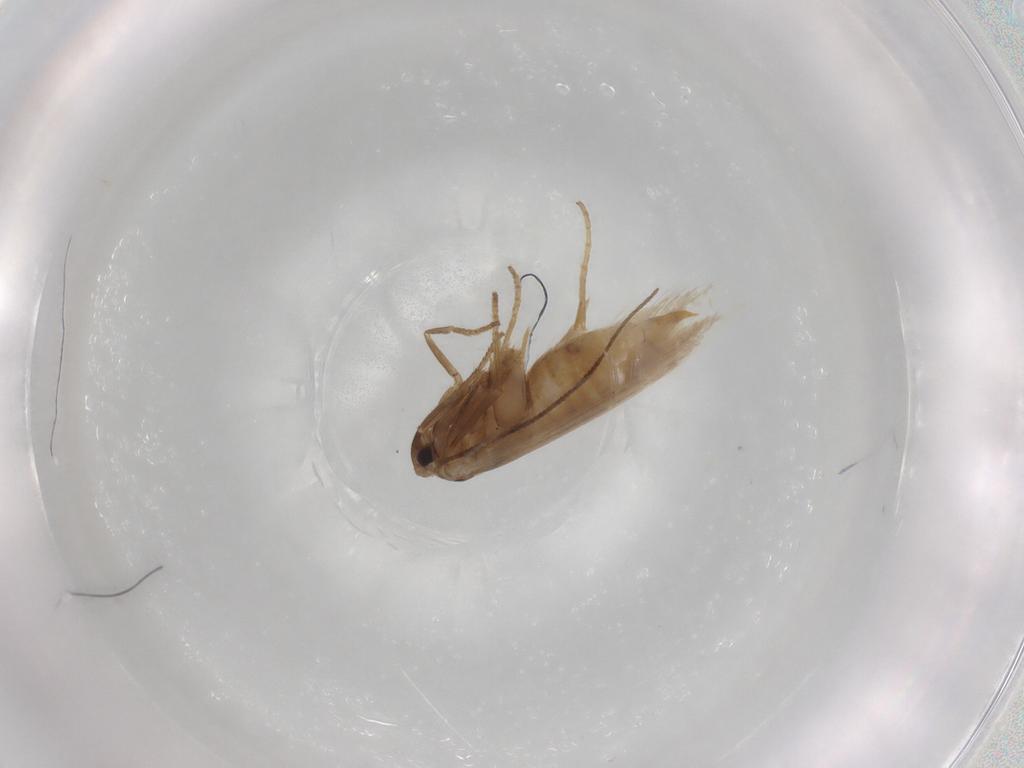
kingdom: Animalia
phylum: Arthropoda
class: Insecta
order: Lepidoptera
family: Bucculatricidae
